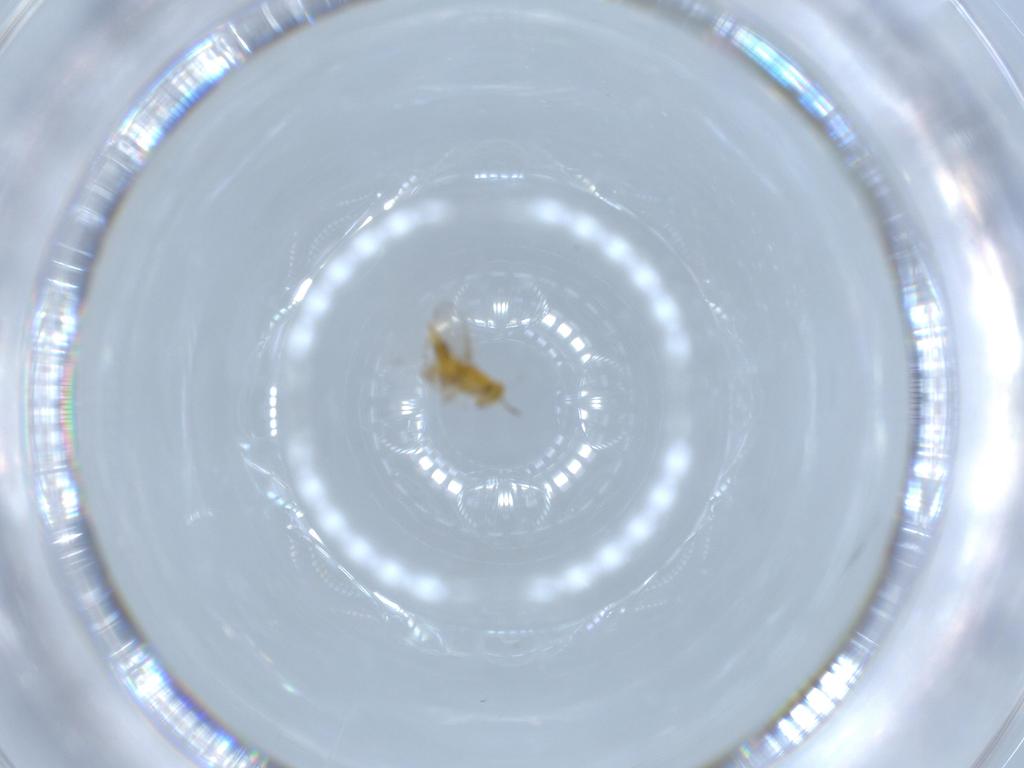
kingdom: Animalia
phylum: Arthropoda
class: Insecta
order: Hymenoptera
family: Aphelinidae
